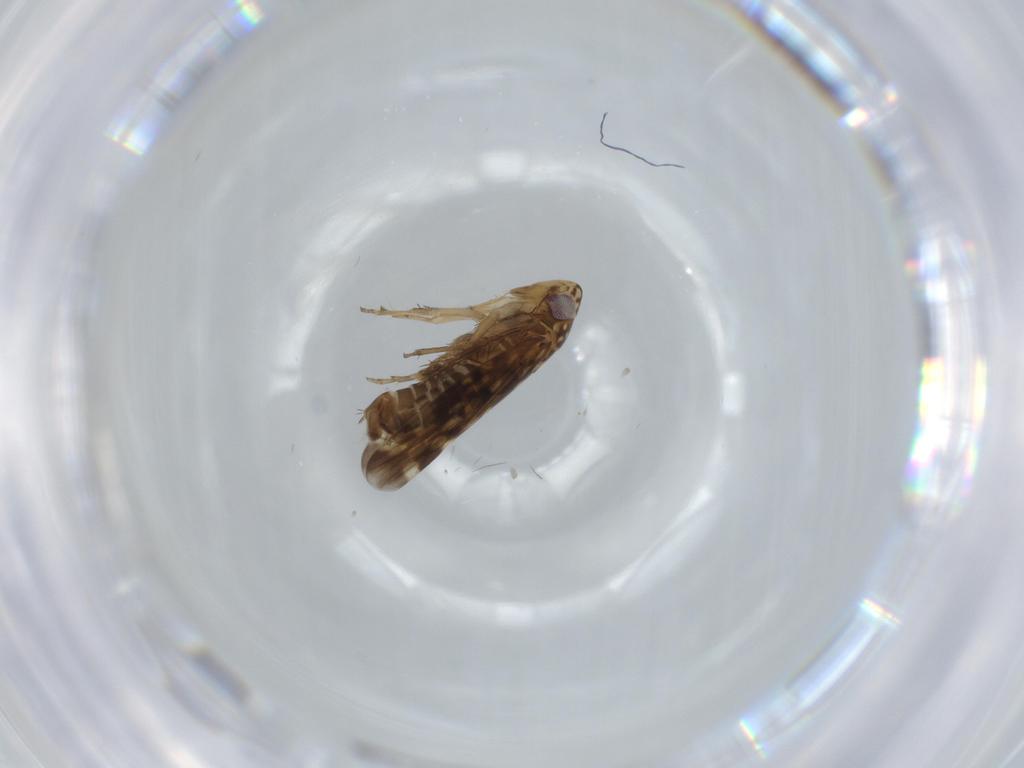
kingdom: Animalia
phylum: Arthropoda
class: Insecta
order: Hemiptera
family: Cicadellidae
